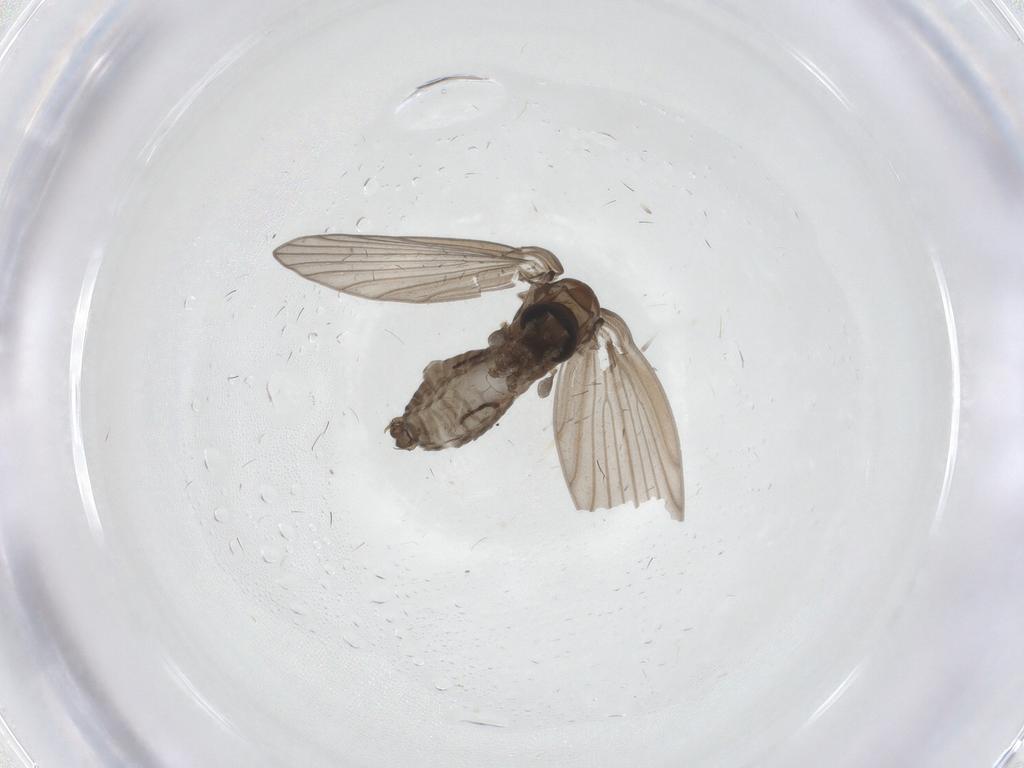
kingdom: Animalia
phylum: Arthropoda
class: Insecta
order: Diptera
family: Psychodidae
